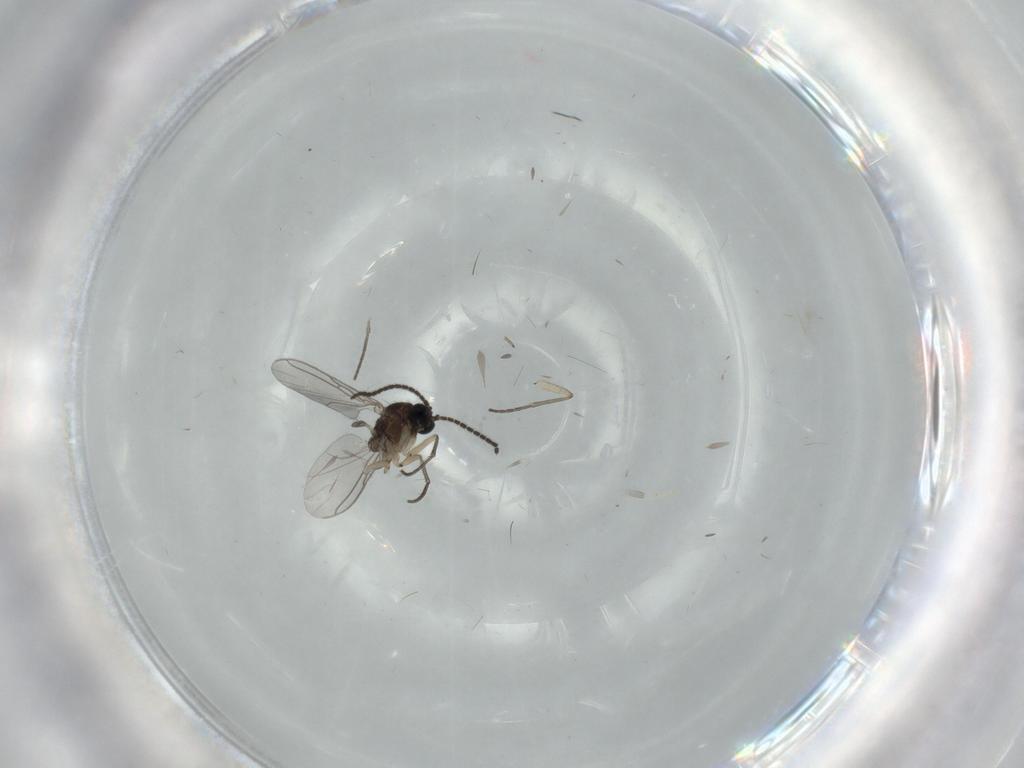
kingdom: Animalia
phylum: Arthropoda
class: Insecta
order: Diptera
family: Sciaridae
